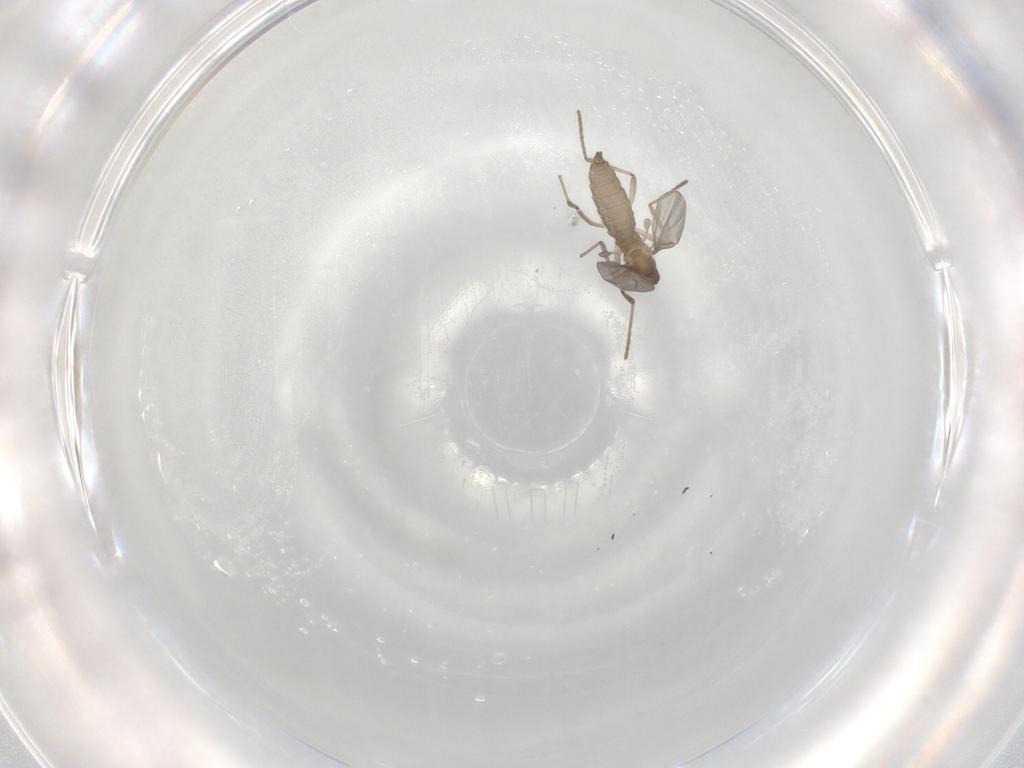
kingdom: Animalia
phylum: Arthropoda
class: Insecta
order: Diptera
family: Cecidomyiidae
